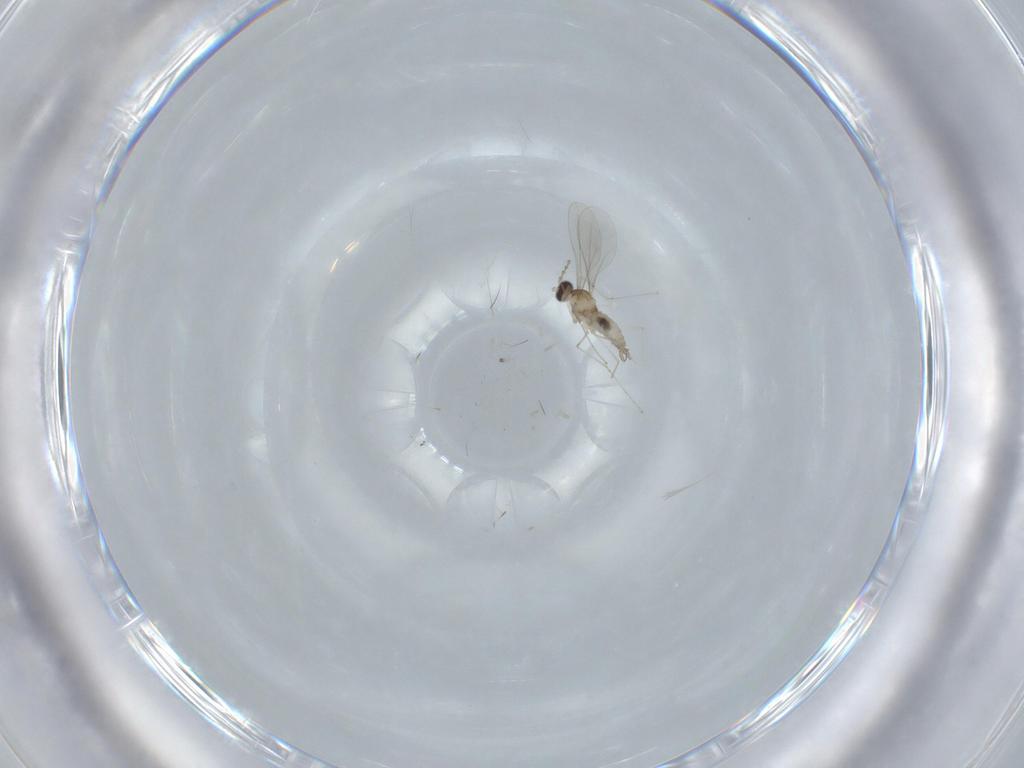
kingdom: Animalia
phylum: Arthropoda
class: Insecta
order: Diptera
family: Cecidomyiidae
